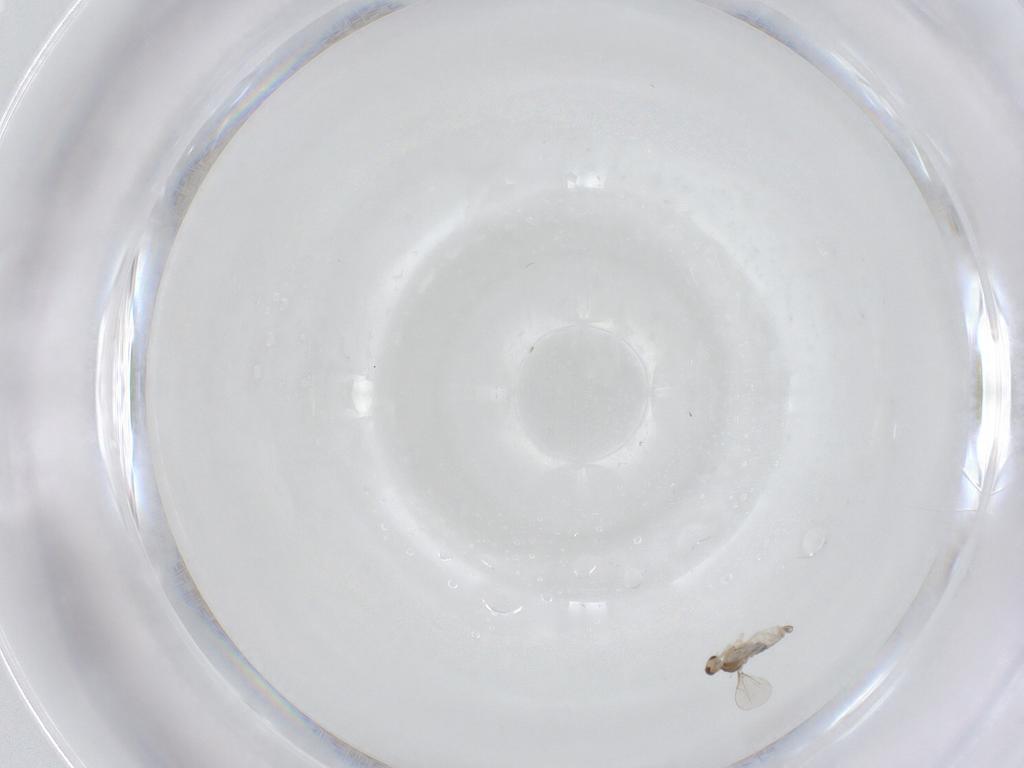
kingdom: Animalia
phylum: Arthropoda
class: Insecta
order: Diptera
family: Cecidomyiidae
